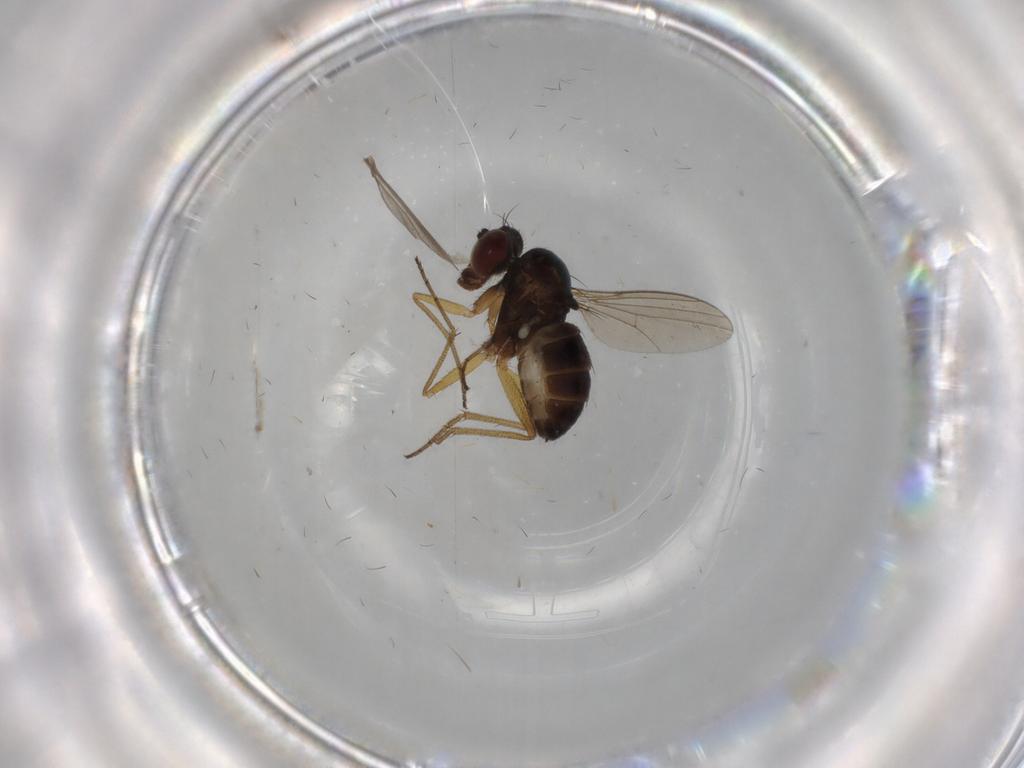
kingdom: Animalia
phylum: Arthropoda
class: Insecta
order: Diptera
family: Dolichopodidae
